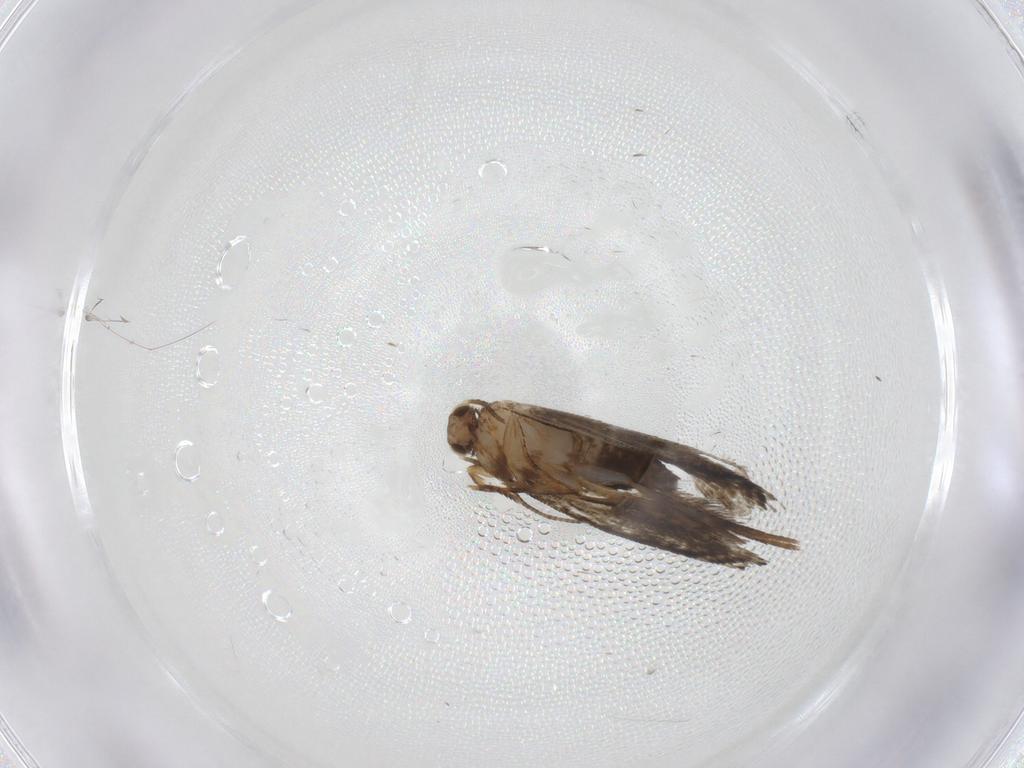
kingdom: Animalia
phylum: Arthropoda
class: Insecta
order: Lepidoptera
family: Crambidae
